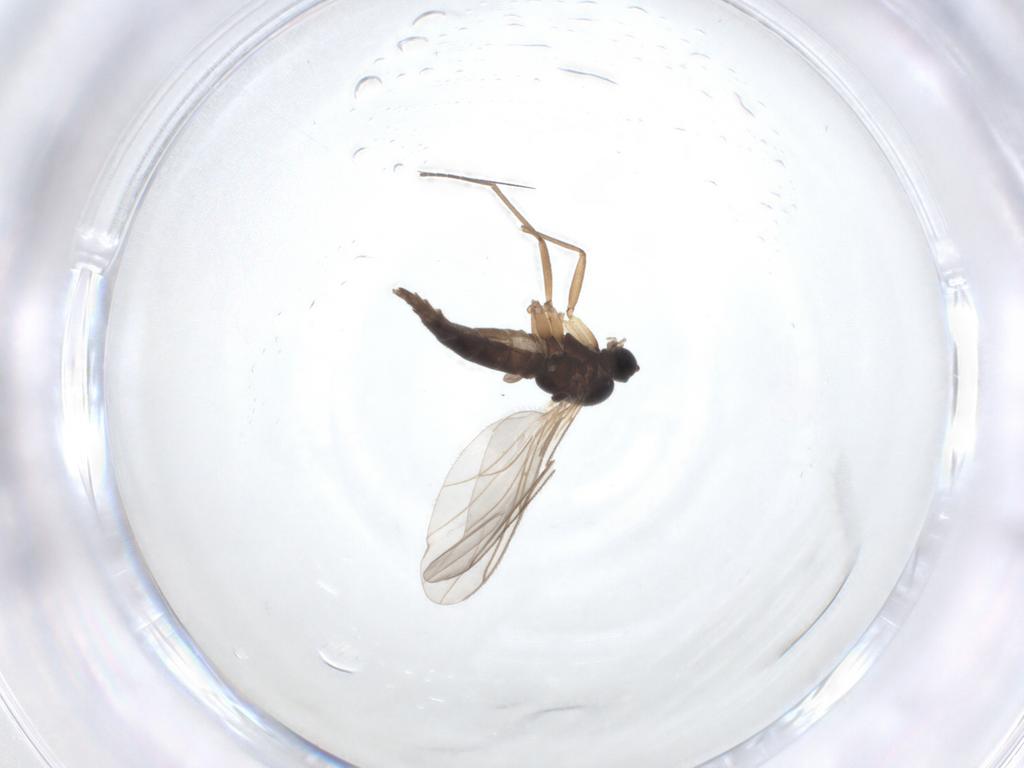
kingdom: Animalia
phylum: Arthropoda
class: Insecta
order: Diptera
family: Sciaridae
